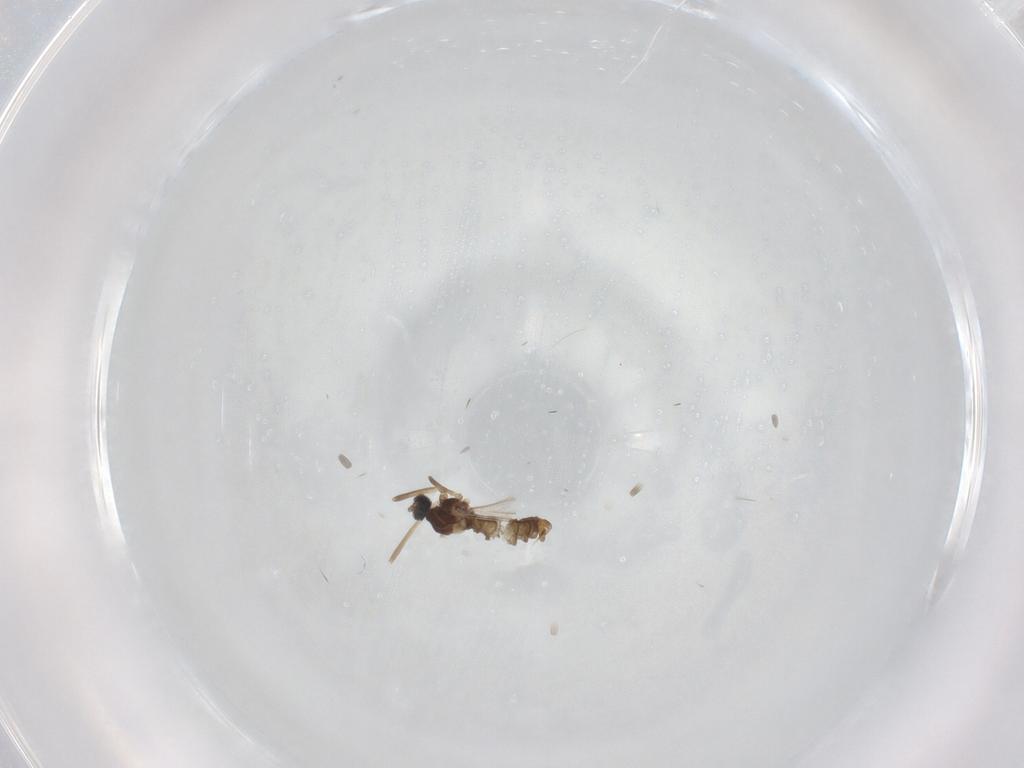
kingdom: Animalia
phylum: Arthropoda
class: Insecta
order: Diptera
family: Cecidomyiidae
